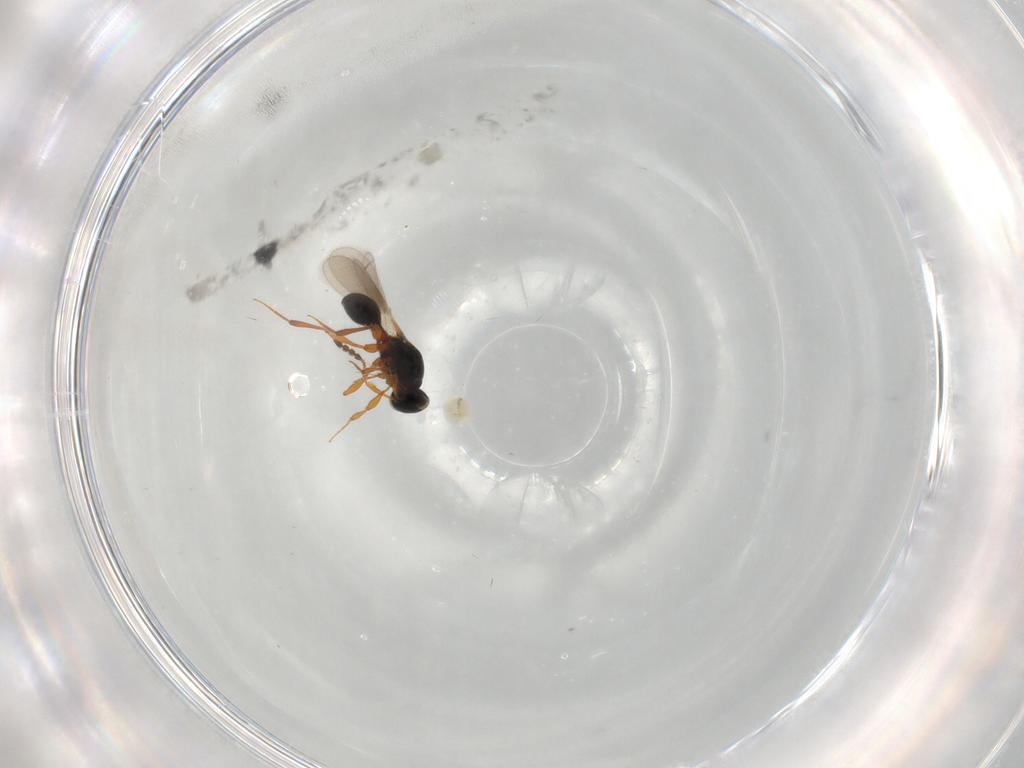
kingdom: Animalia
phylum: Arthropoda
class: Insecta
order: Hymenoptera
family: Platygastridae
